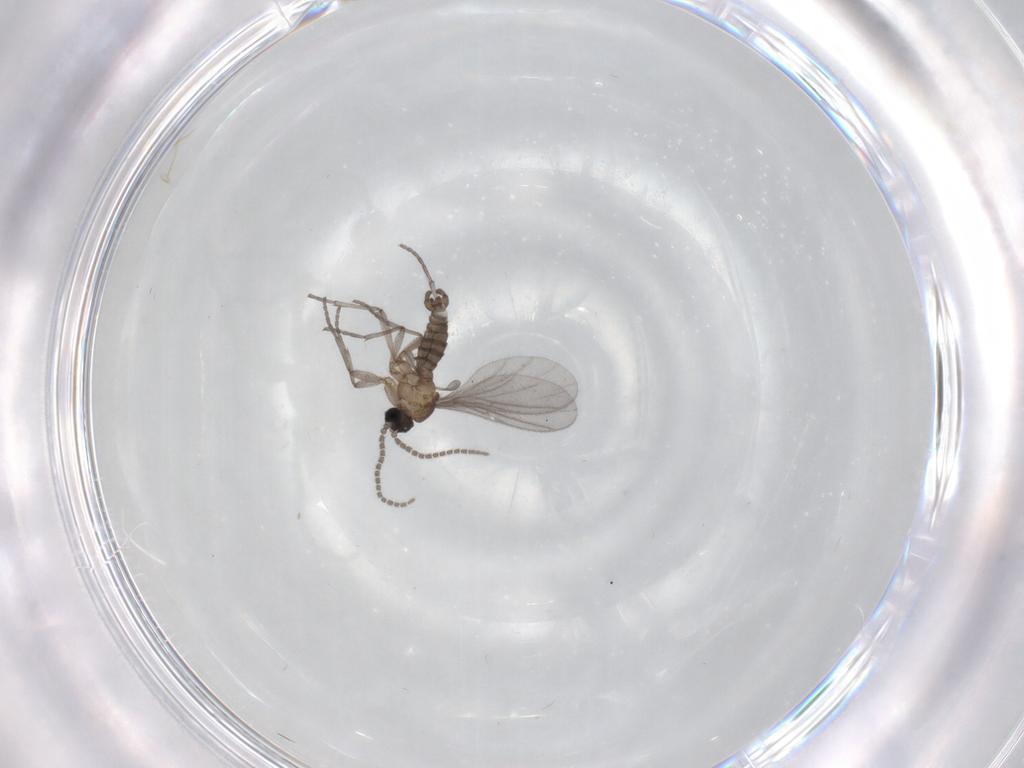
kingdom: Animalia
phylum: Arthropoda
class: Insecta
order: Diptera
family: Sciaridae
